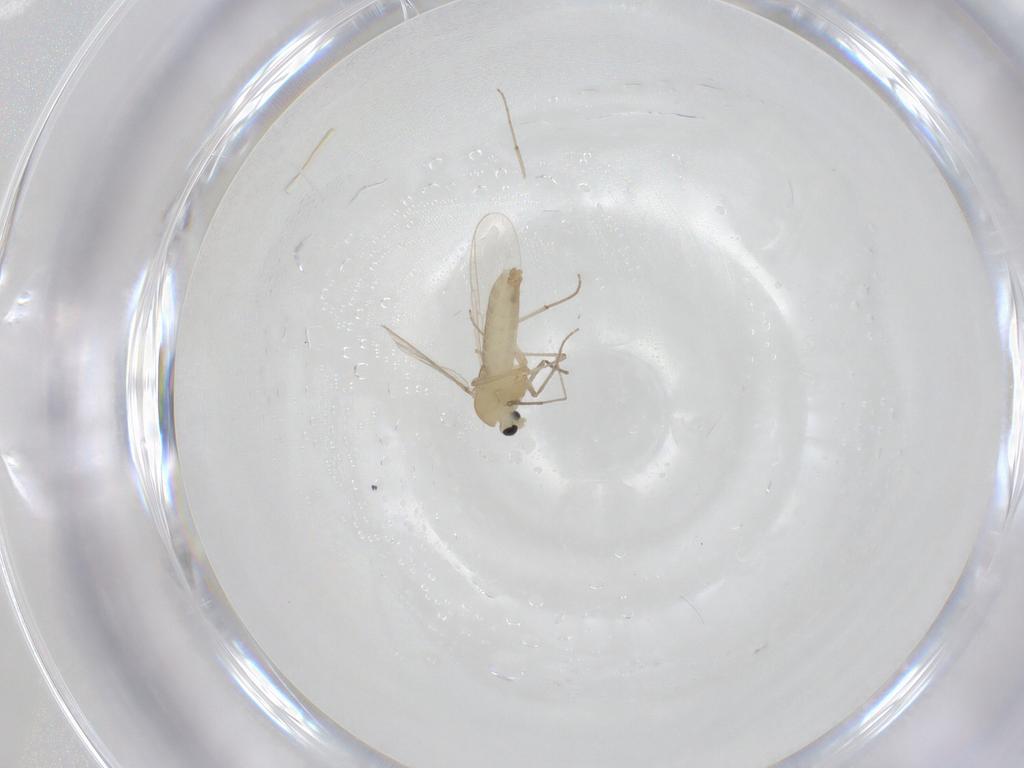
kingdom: Animalia
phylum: Arthropoda
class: Insecta
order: Diptera
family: Chironomidae
